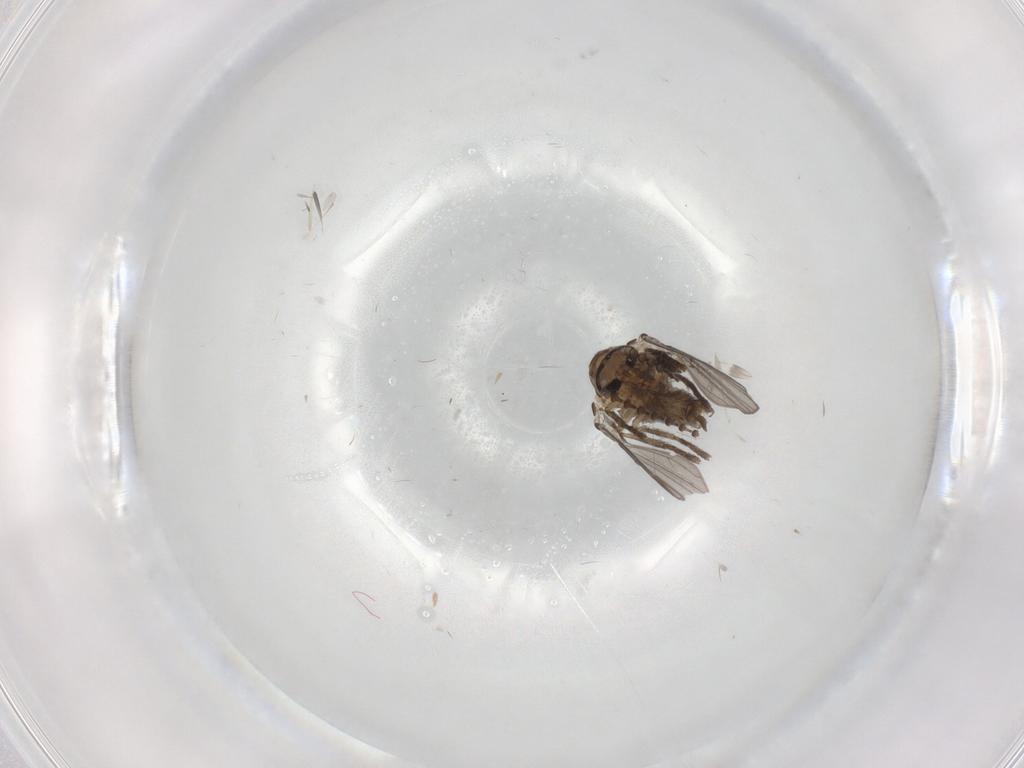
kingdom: Animalia
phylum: Arthropoda
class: Insecta
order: Diptera
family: Psychodidae
